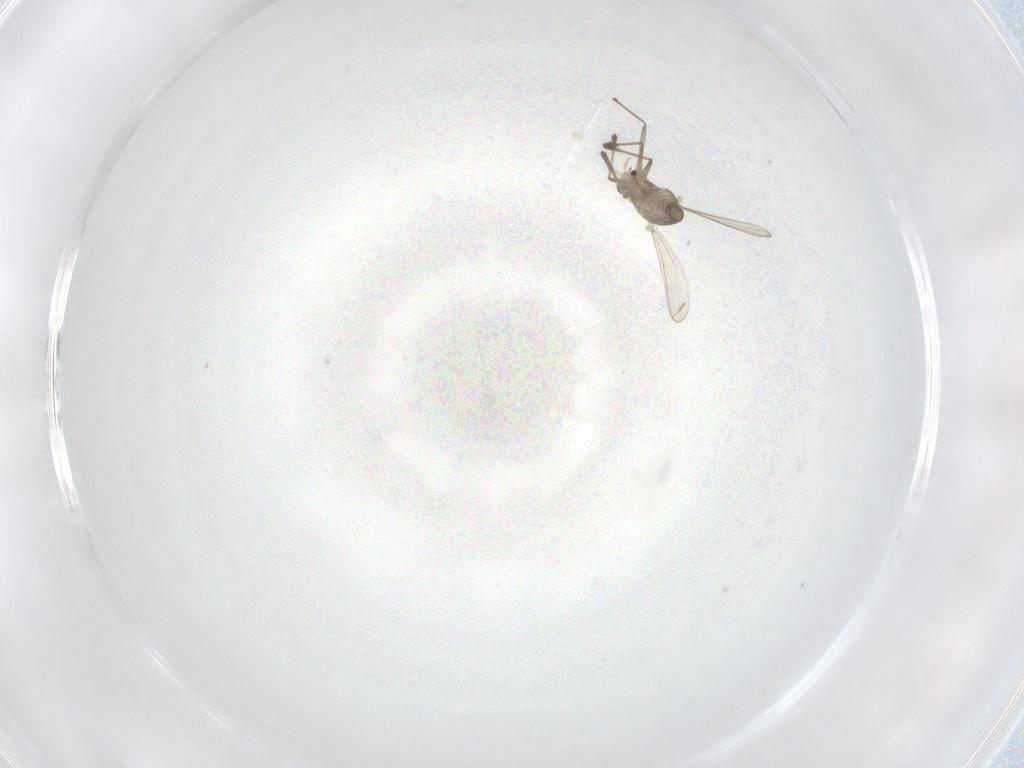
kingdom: Animalia
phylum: Arthropoda
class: Insecta
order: Diptera
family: Chironomidae
